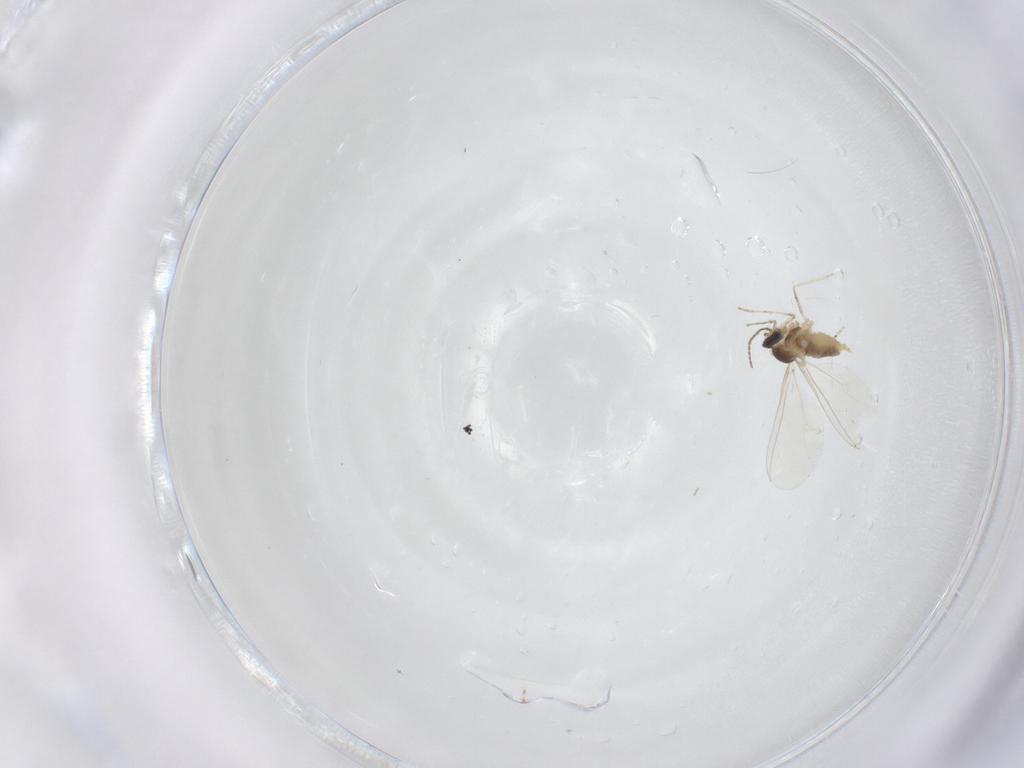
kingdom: Animalia
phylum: Arthropoda
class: Insecta
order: Diptera
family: Cecidomyiidae
